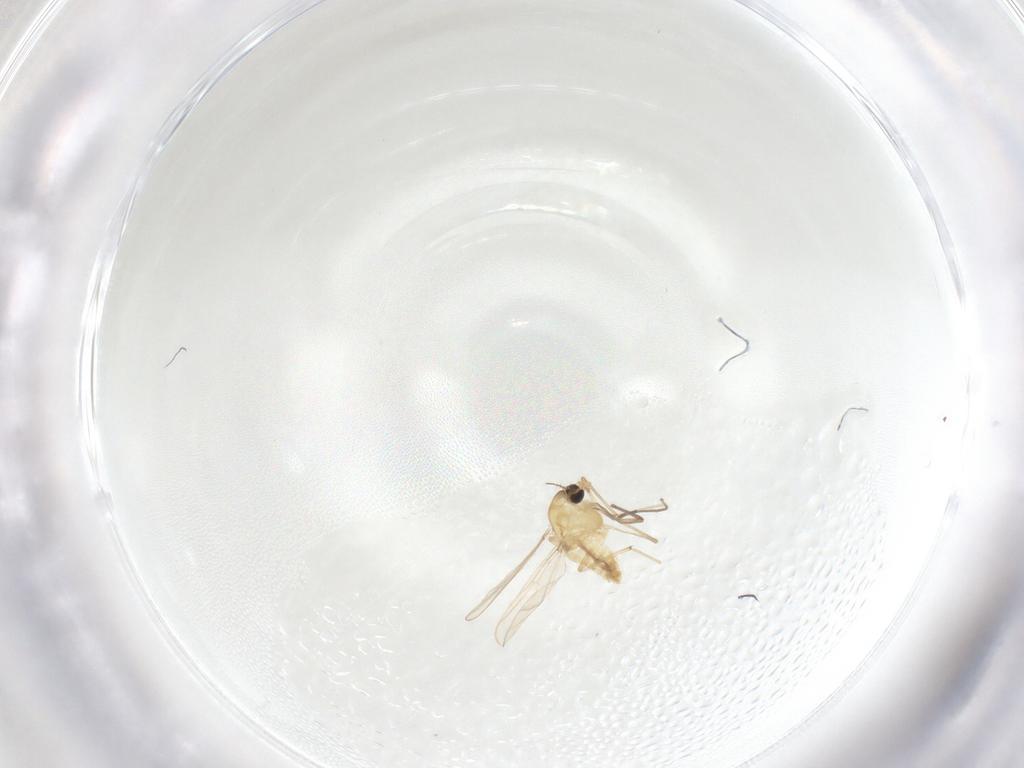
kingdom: Animalia
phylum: Arthropoda
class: Insecta
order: Diptera
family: Chironomidae
